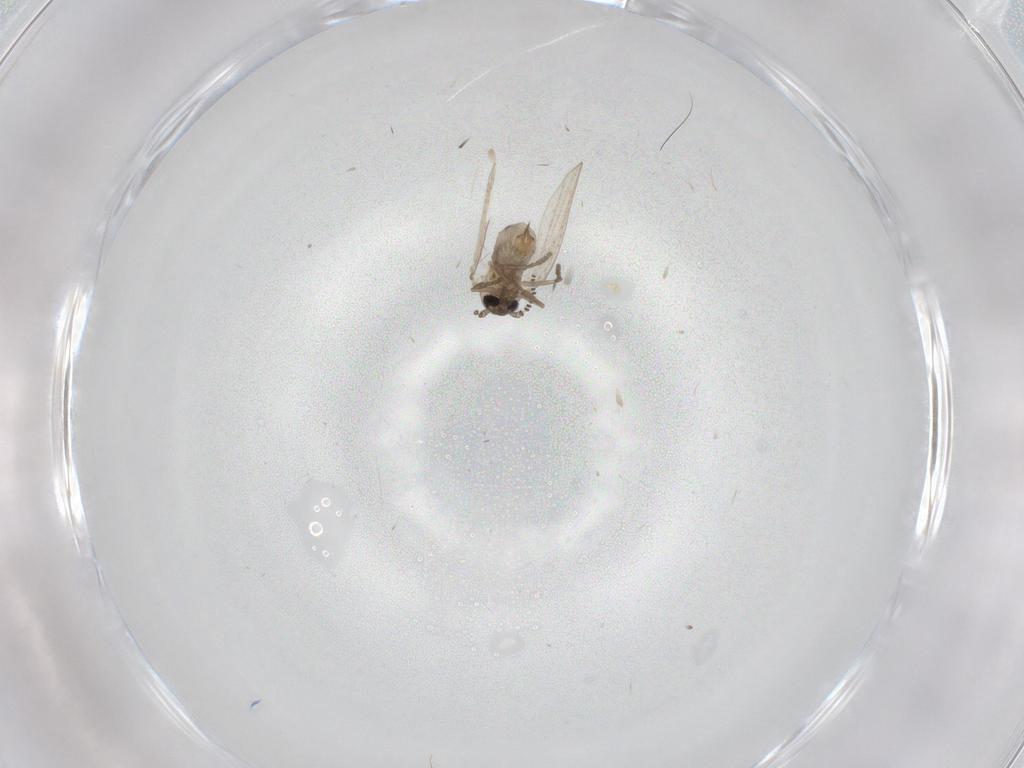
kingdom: Animalia
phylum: Arthropoda
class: Insecta
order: Diptera
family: Psychodidae
